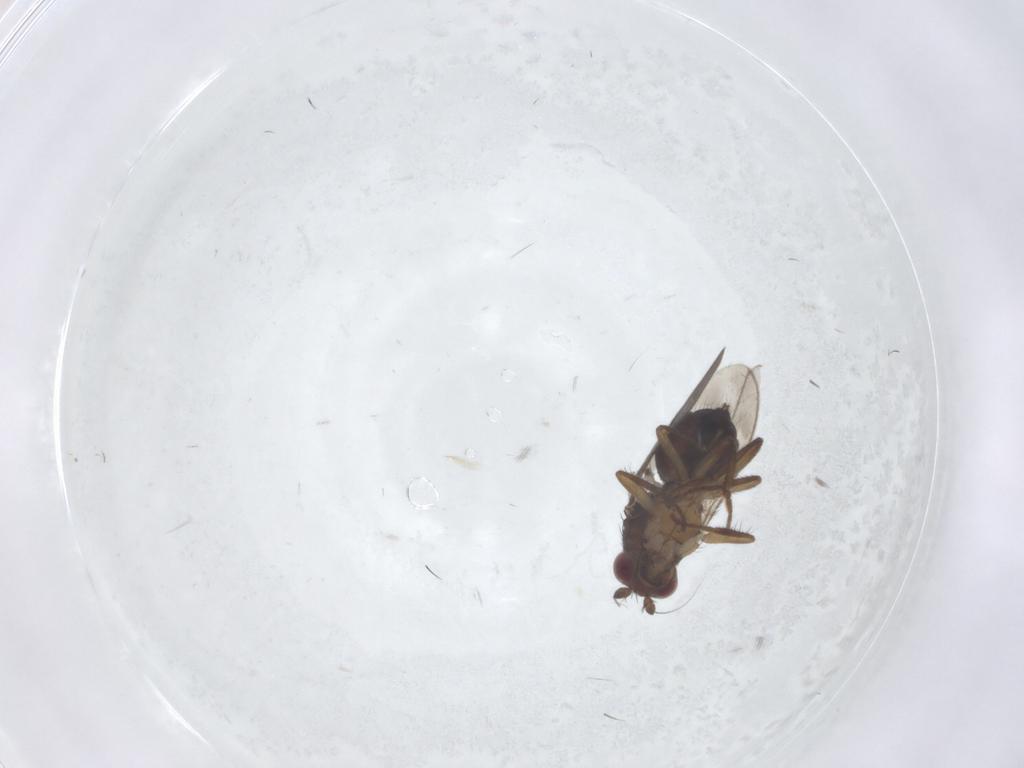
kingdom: Animalia
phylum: Arthropoda
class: Insecta
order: Diptera
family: Sphaeroceridae
